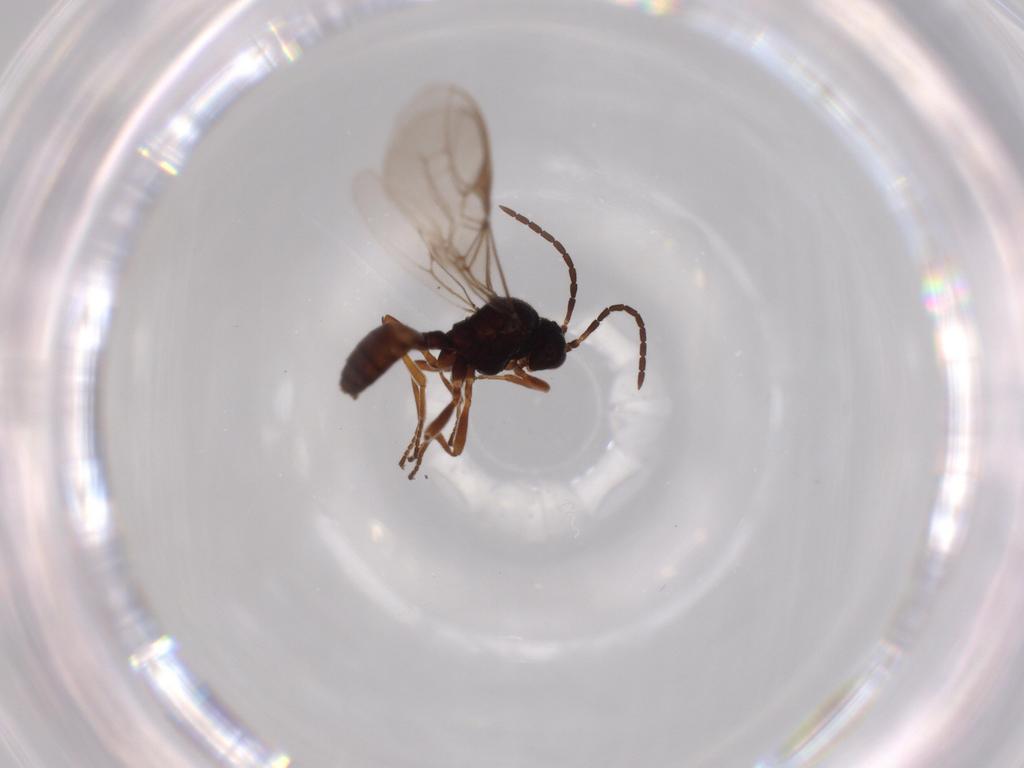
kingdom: Animalia
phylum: Arthropoda
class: Insecta
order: Hymenoptera
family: Braconidae
